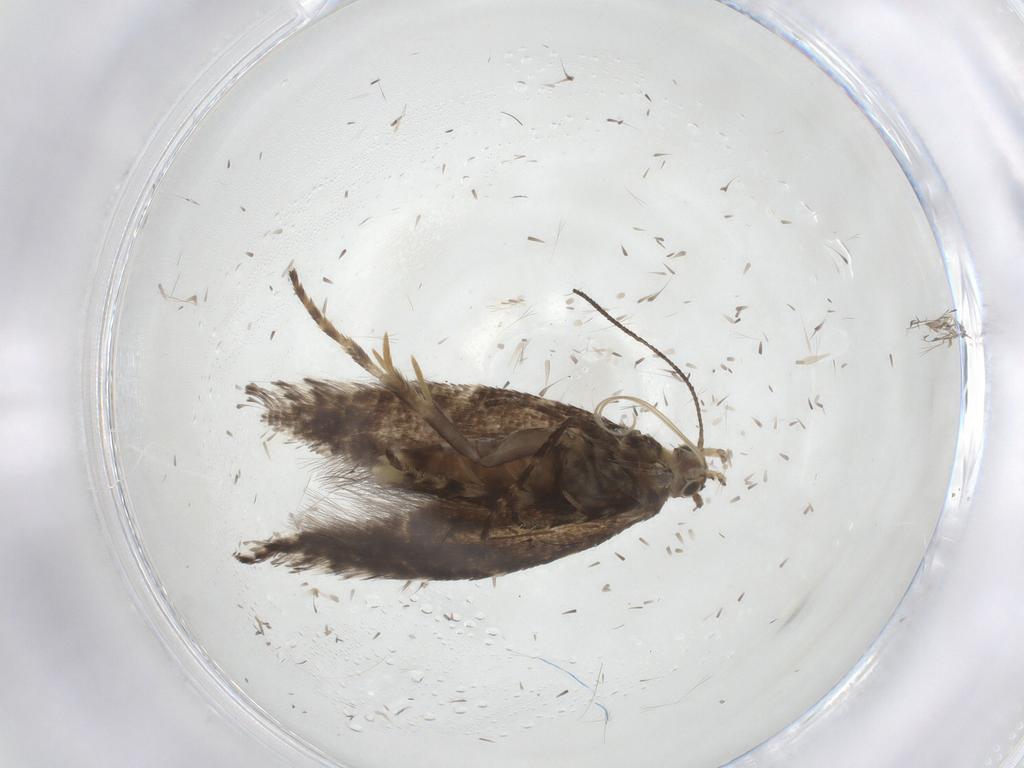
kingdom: Animalia
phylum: Arthropoda
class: Insecta
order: Lepidoptera
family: Glyphipterigidae
